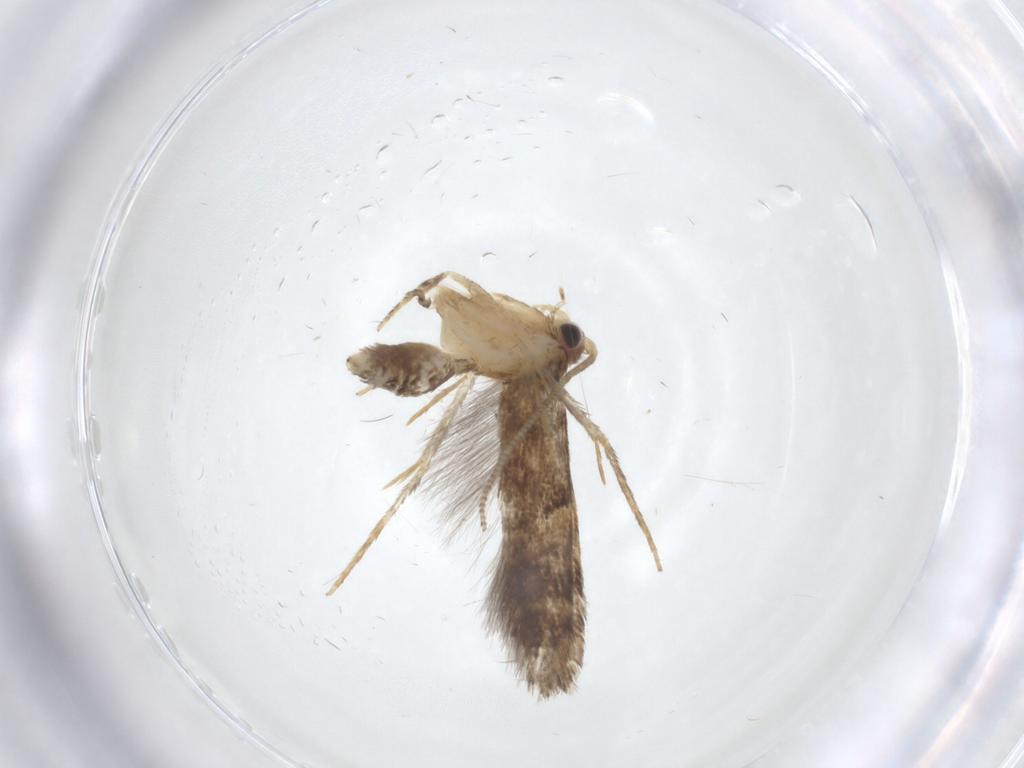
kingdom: Animalia
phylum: Arthropoda
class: Insecta
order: Lepidoptera
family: Tineidae
